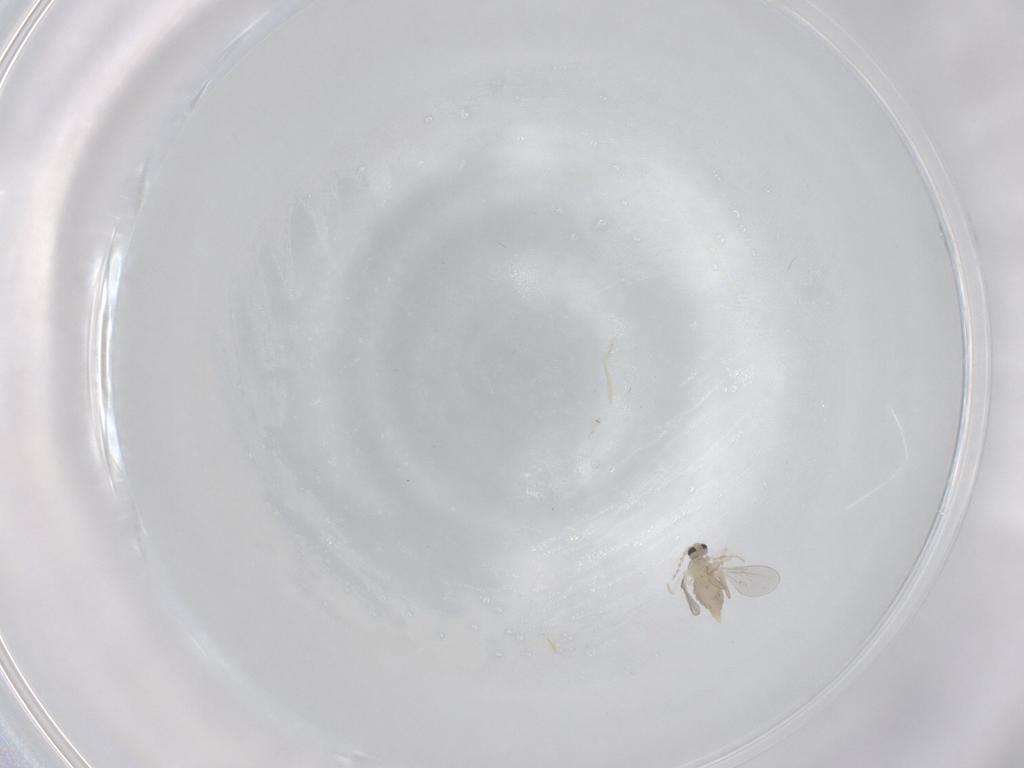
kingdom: Animalia
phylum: Arthropoda
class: Insecta
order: Diptera
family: Cecidomyiidae
